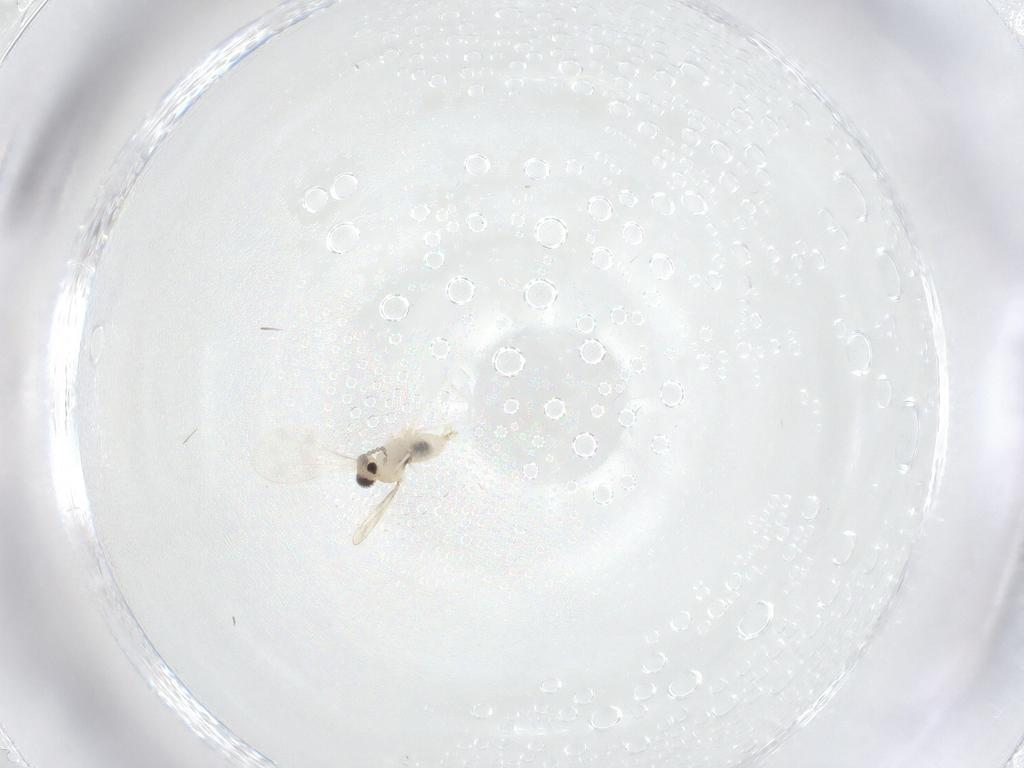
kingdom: Animalia
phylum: Arthropoda
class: Insecta
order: Diptera
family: Cecidomyiidae
